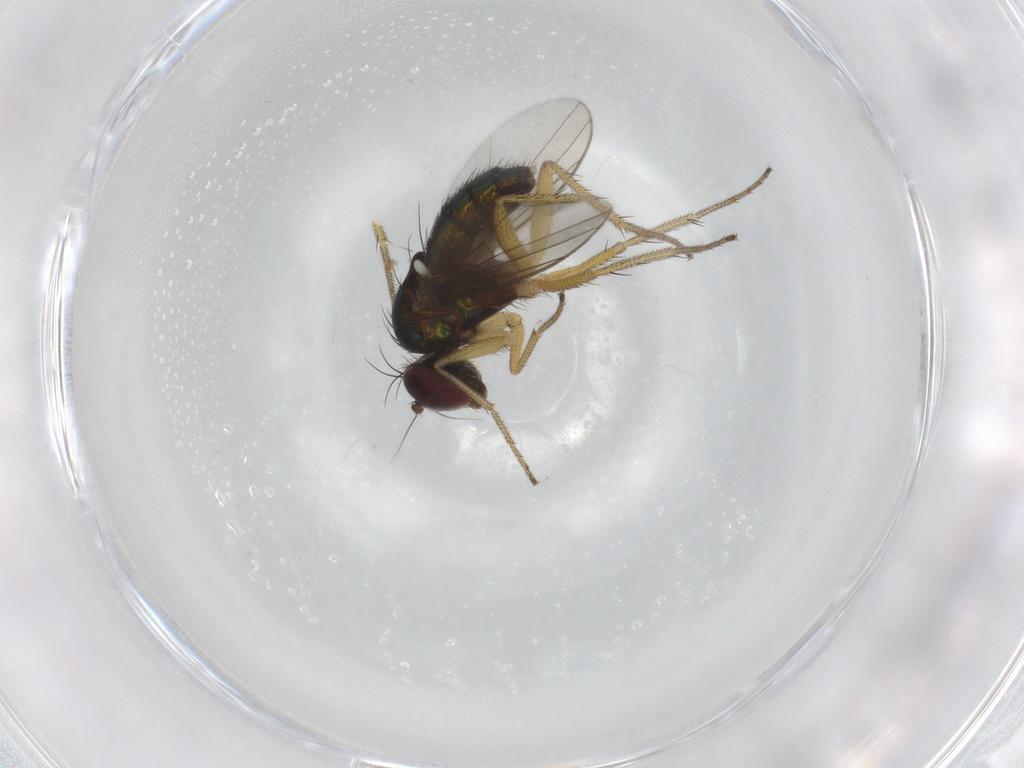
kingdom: Animalia
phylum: Arthropoda
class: Insecta
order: Diptera
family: Dolichopodidae
